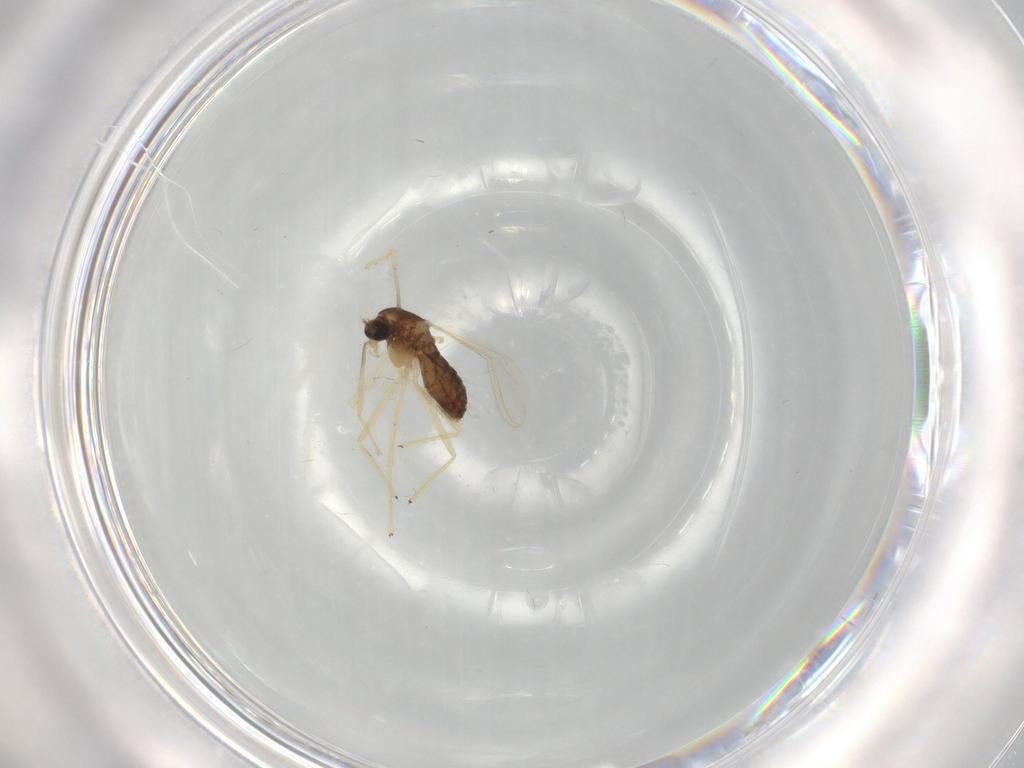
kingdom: Animalia
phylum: Arthropoda
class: Insecta
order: Diptera
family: Chironomidae
